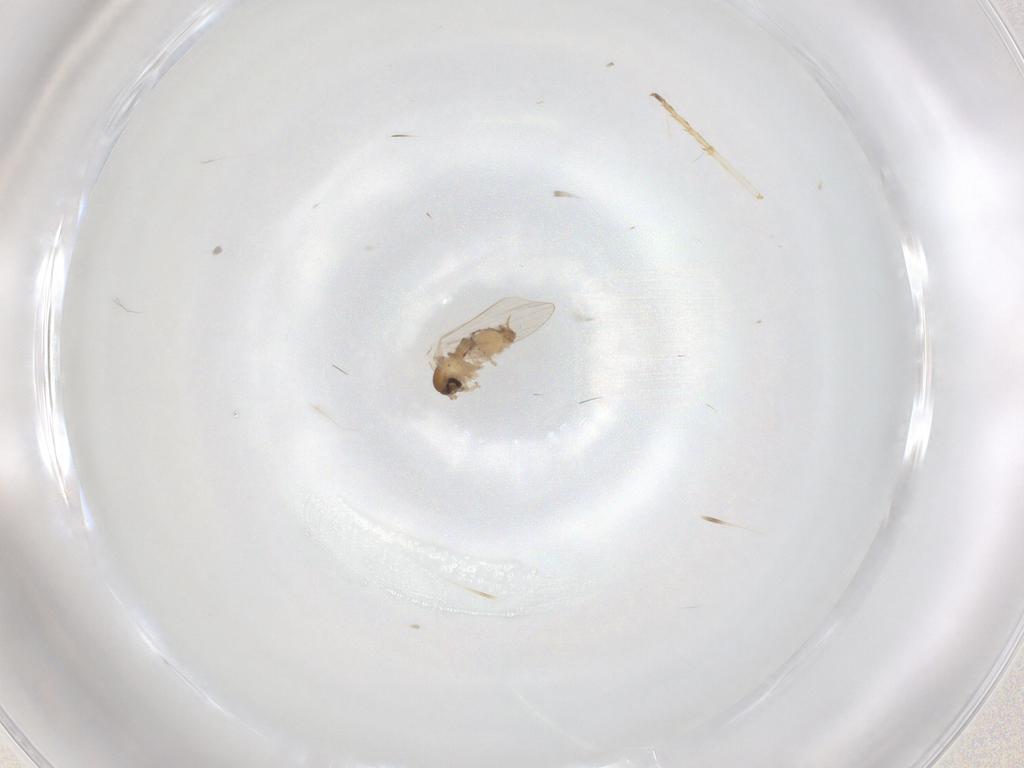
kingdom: Animalia
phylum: Arthropoda
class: Insecta
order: Diptera
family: Psychodidae
